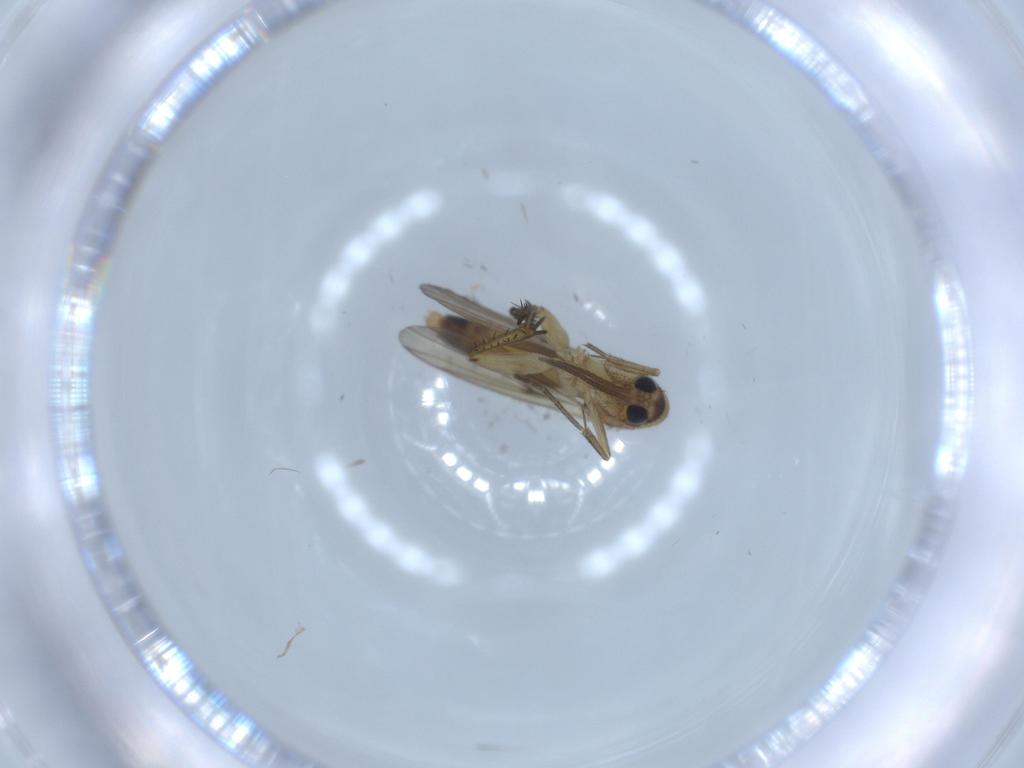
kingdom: Animalia
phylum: Arthropoda
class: Insecta
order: Diptera
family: Mycetophilidae
